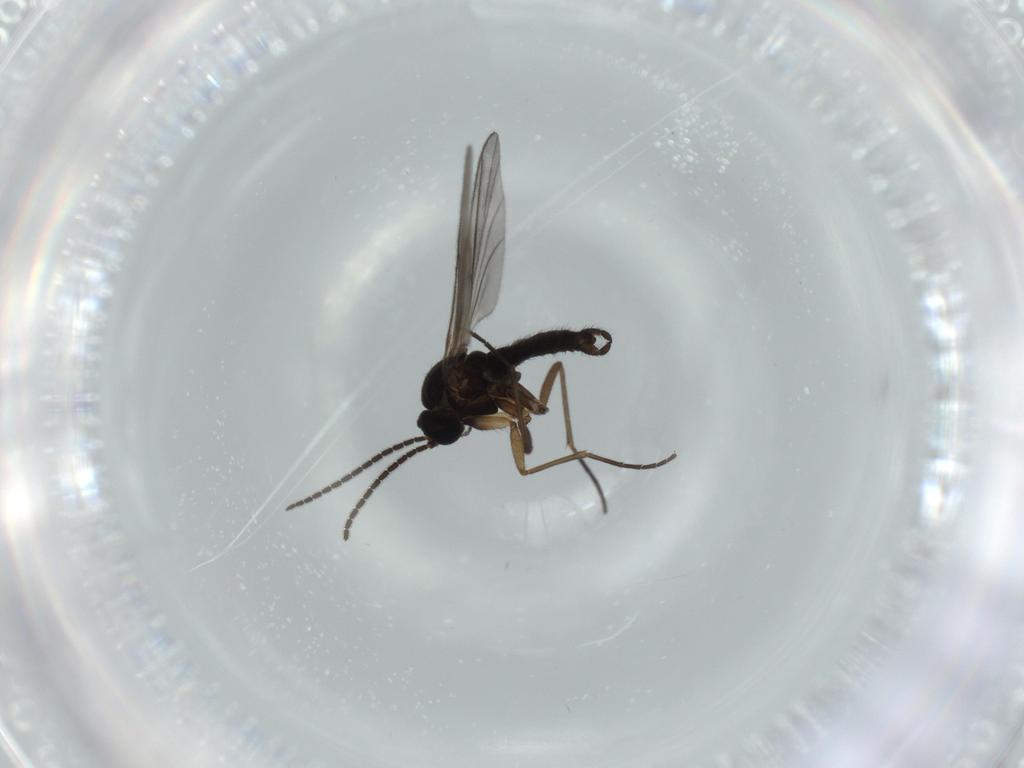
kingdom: Animalia
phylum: Arthropoda
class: Insecta
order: Diptera
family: Sciaridae
